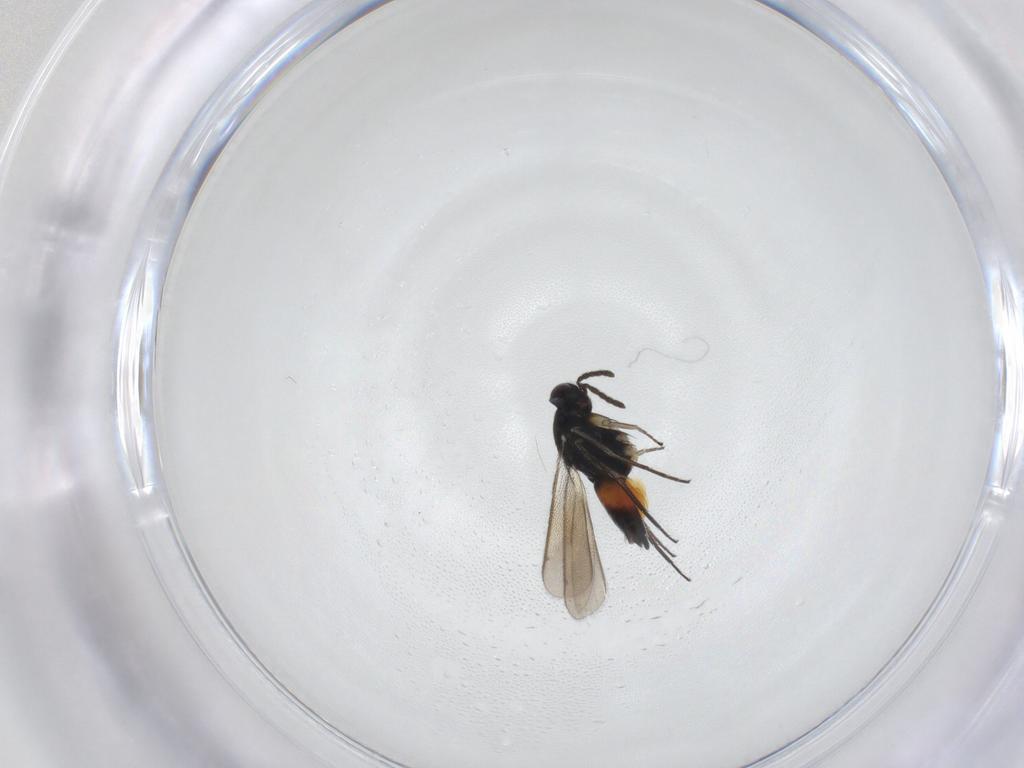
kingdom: Animalia
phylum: Arthropoda
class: Insecta
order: Hymenoptera
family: Eulophidae
